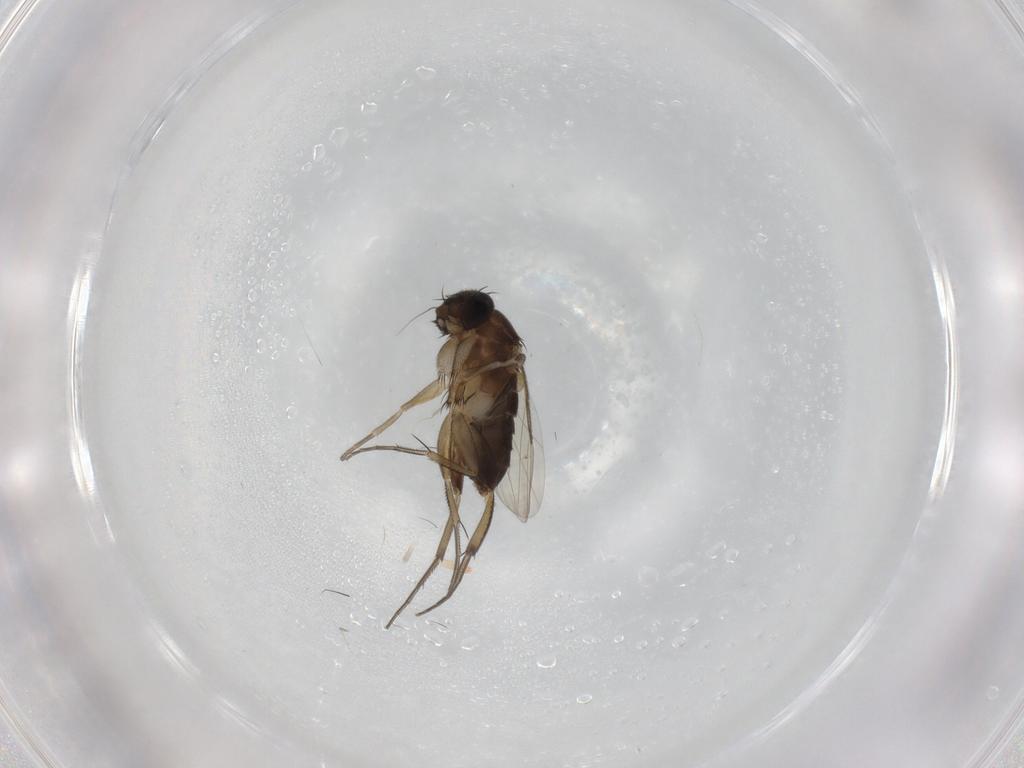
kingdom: Animalia
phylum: Arthropoda
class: Insecta
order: Diptera
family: Phoridae
